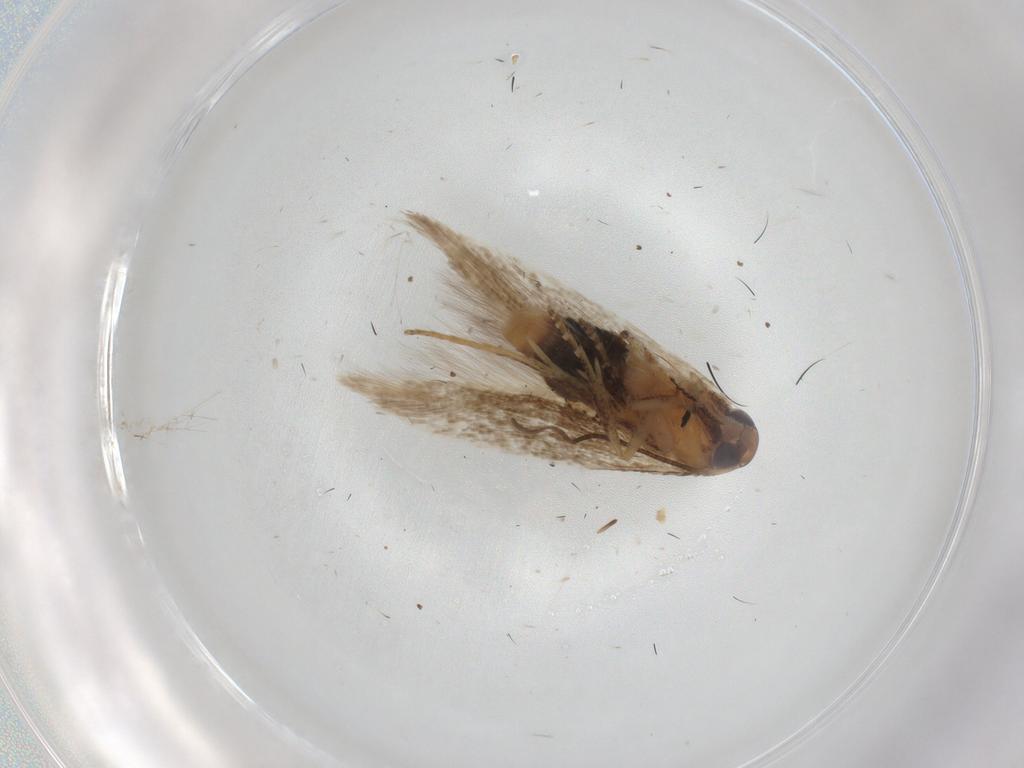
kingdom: Animalia
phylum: Arthropoda
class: Insecta
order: Lepidoptera
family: Cosmopterigidae
